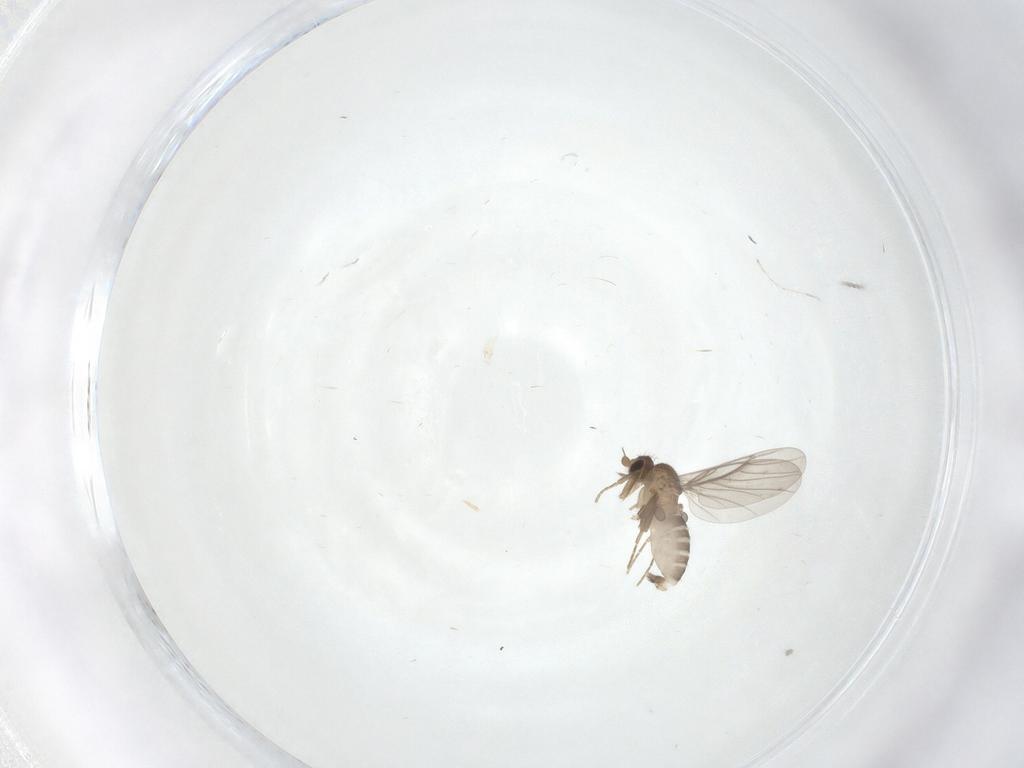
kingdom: Animalia
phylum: Arthropoda
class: Insecta
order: Diptera
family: Cecidomyiidae
